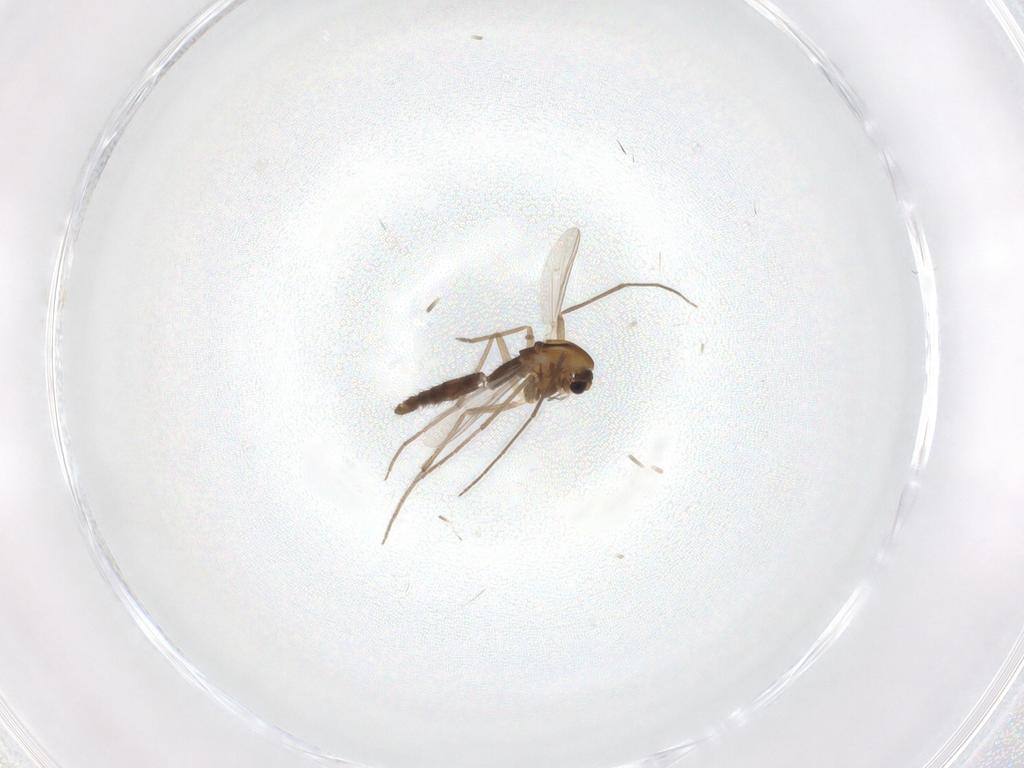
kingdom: Animalia
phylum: Arthropoda
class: Insecta
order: Diptera
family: Chironomidae
